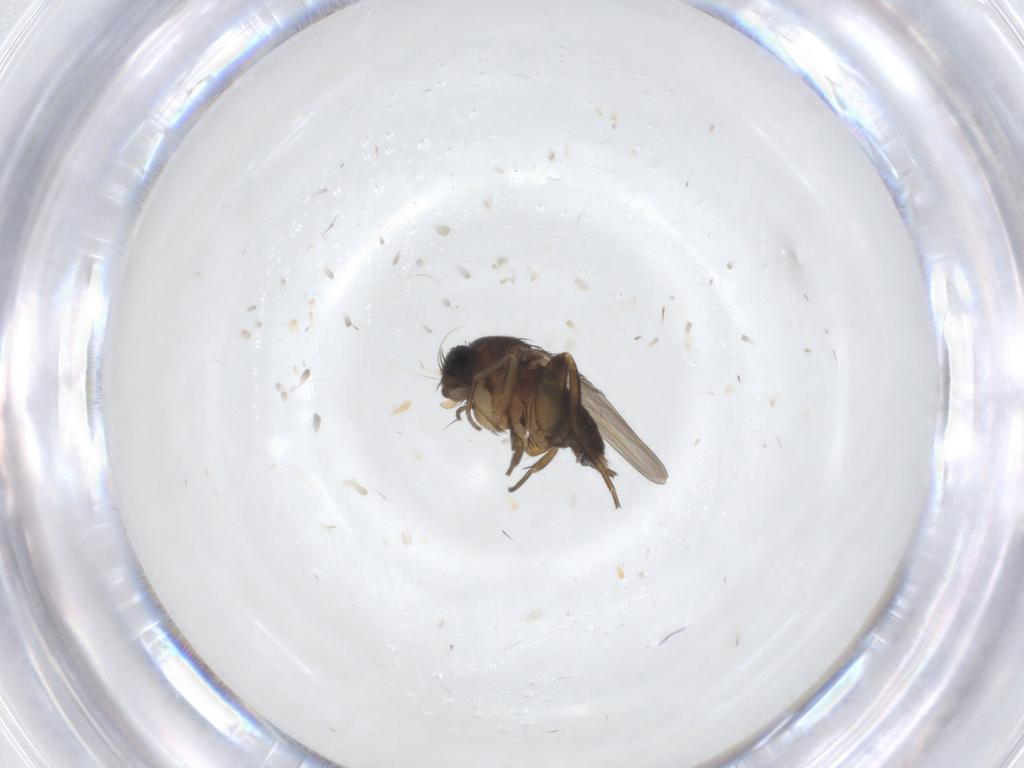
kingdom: Animalia
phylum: Arthropoda
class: Insecta
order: Diptera
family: Phoridae
